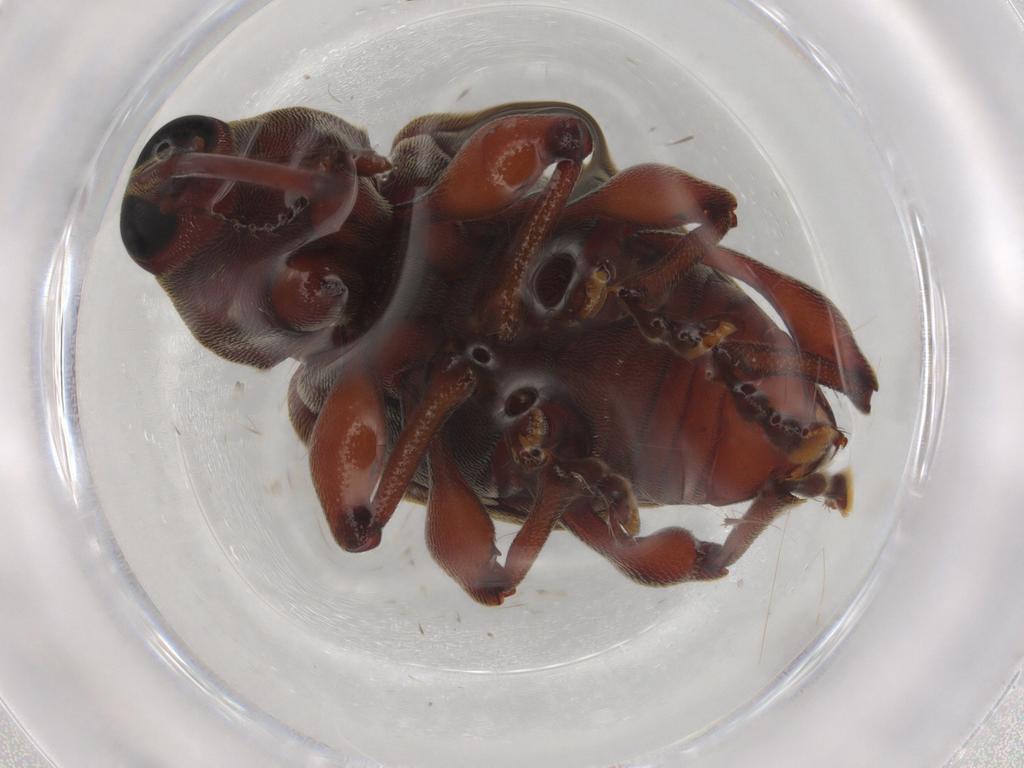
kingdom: Animalia
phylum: Arthropoda
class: Insecta
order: Coleoptera
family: Curculionidae
